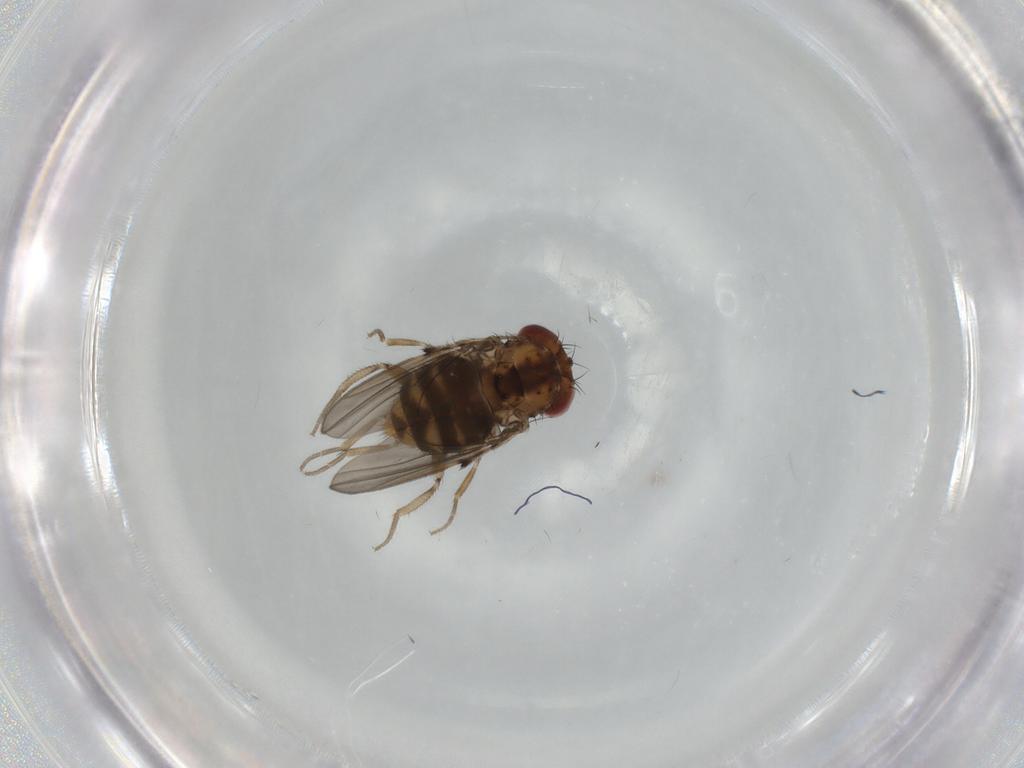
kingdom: Animalia
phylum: Arthropoda
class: Insecta
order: Diptera
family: Drosophilidae
